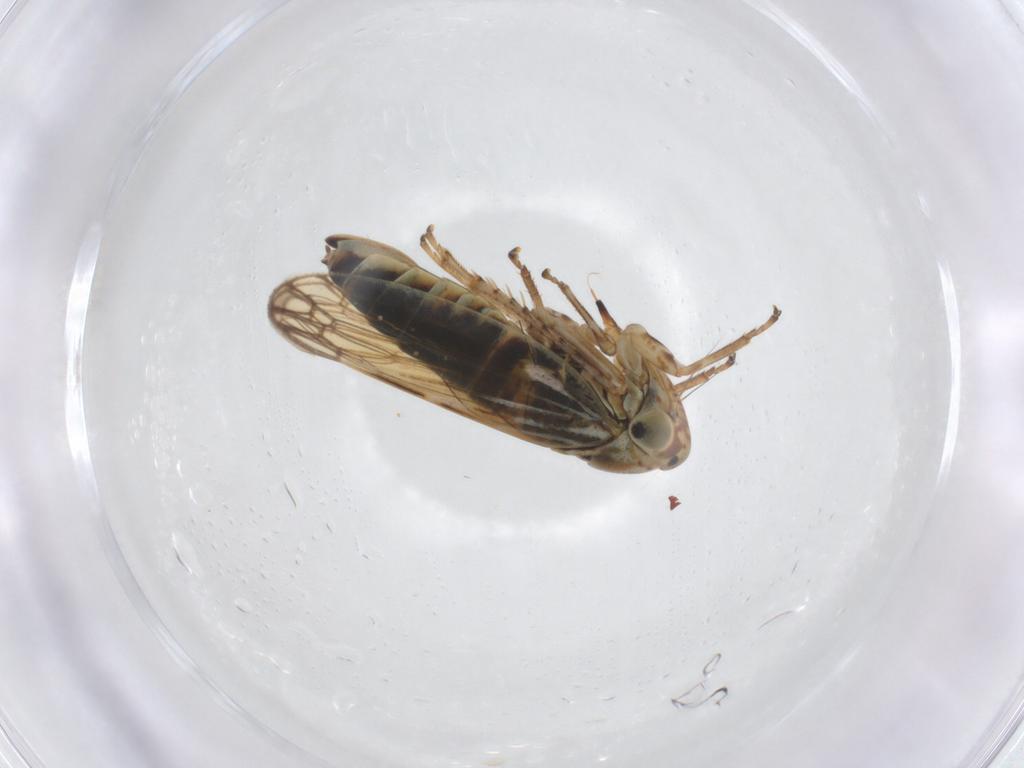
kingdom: Animalia
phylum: Arthropoda
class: Insecta
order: Hemiptera
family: Cicadellidae
